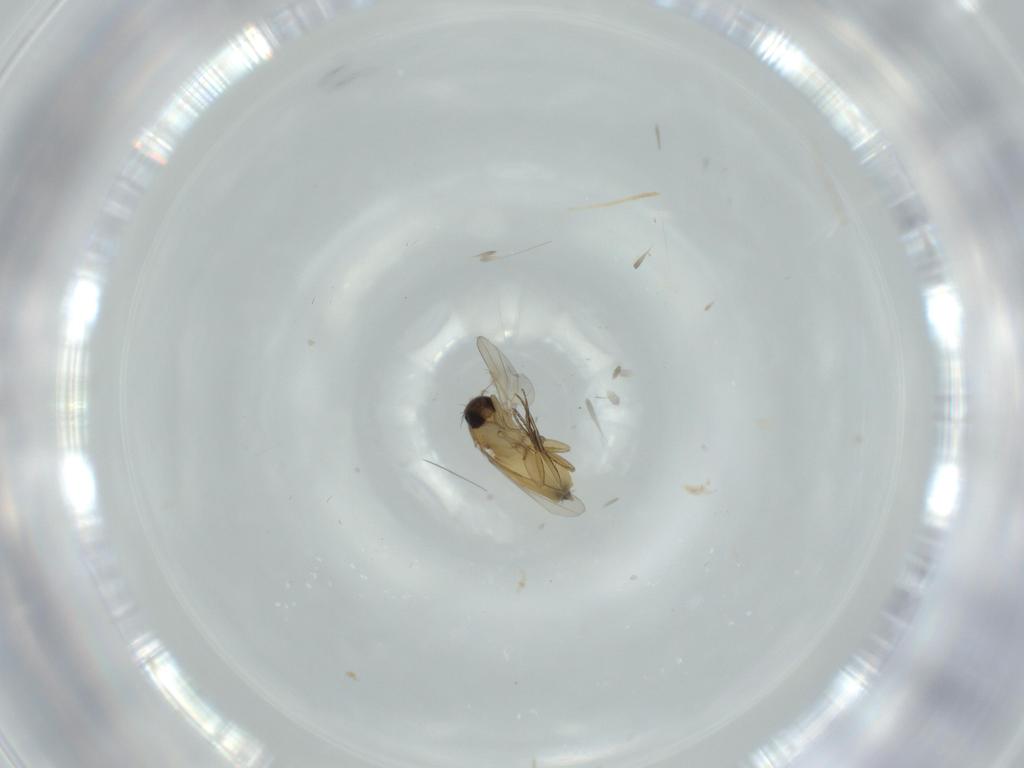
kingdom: Animalia
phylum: Arthropoda
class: Insecta
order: Diptera
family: Phoridae
